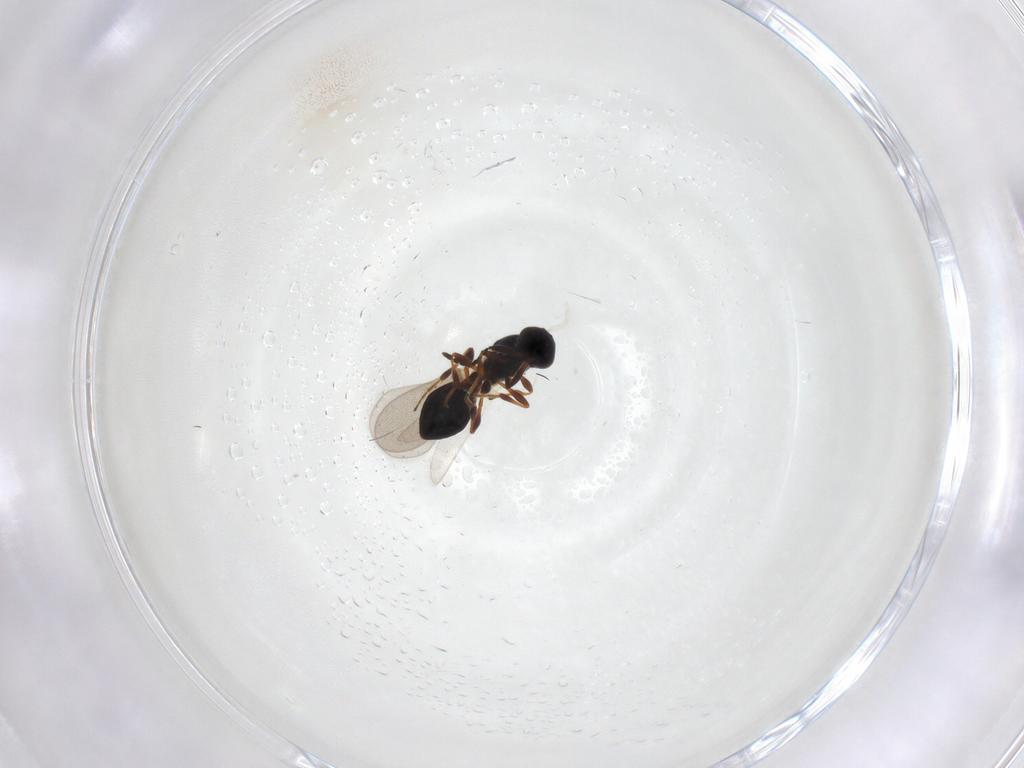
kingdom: Animalia
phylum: Arthropoda
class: Insecta
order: Hymenoptera
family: Platygastridae
